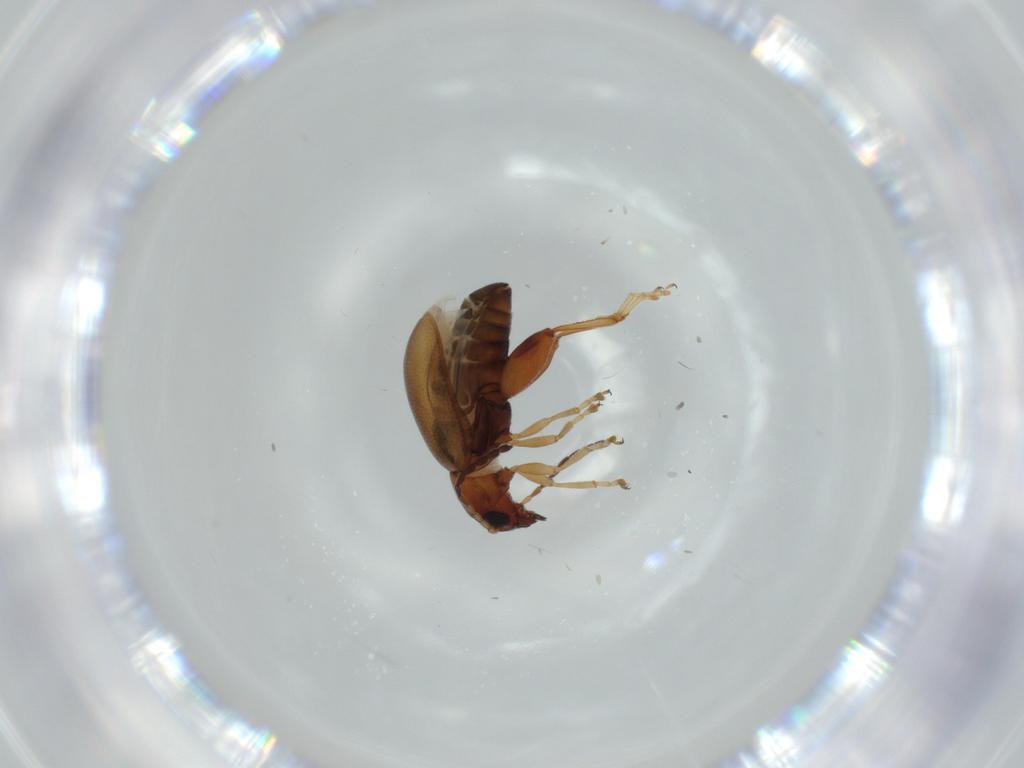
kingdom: Animalia
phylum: Arthropoda
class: Insecta
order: Coleoptera
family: Chrysomelidae
